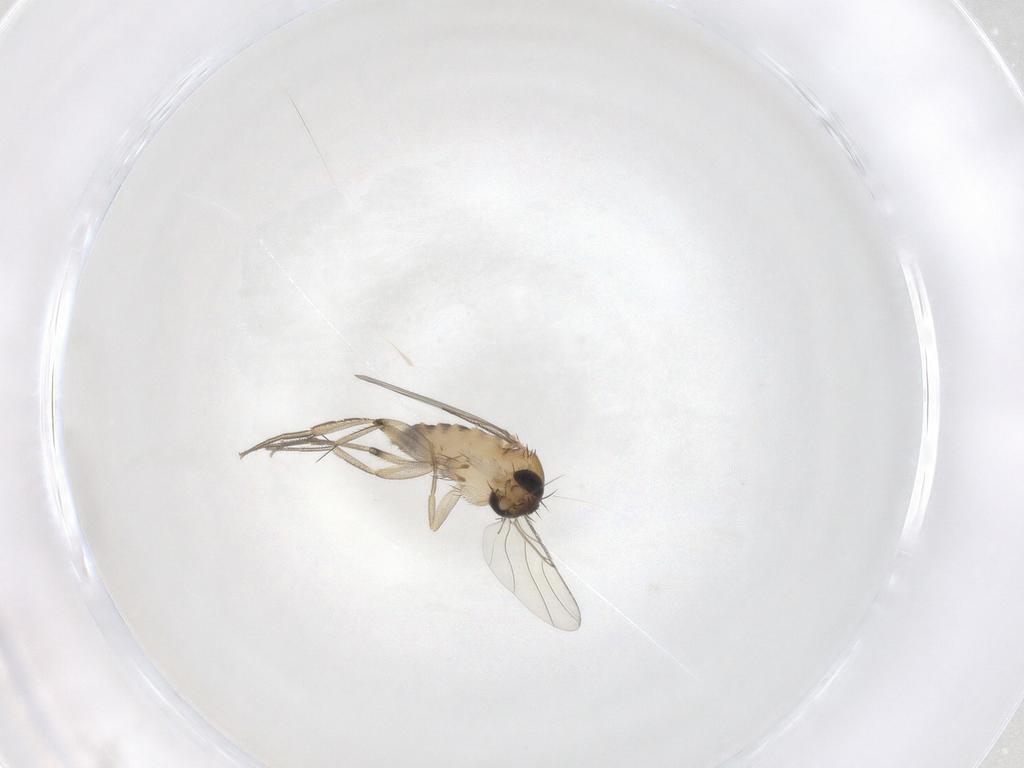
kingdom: Animalia
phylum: Arthropoda
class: Insecta
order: Diptera
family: Phoridae
